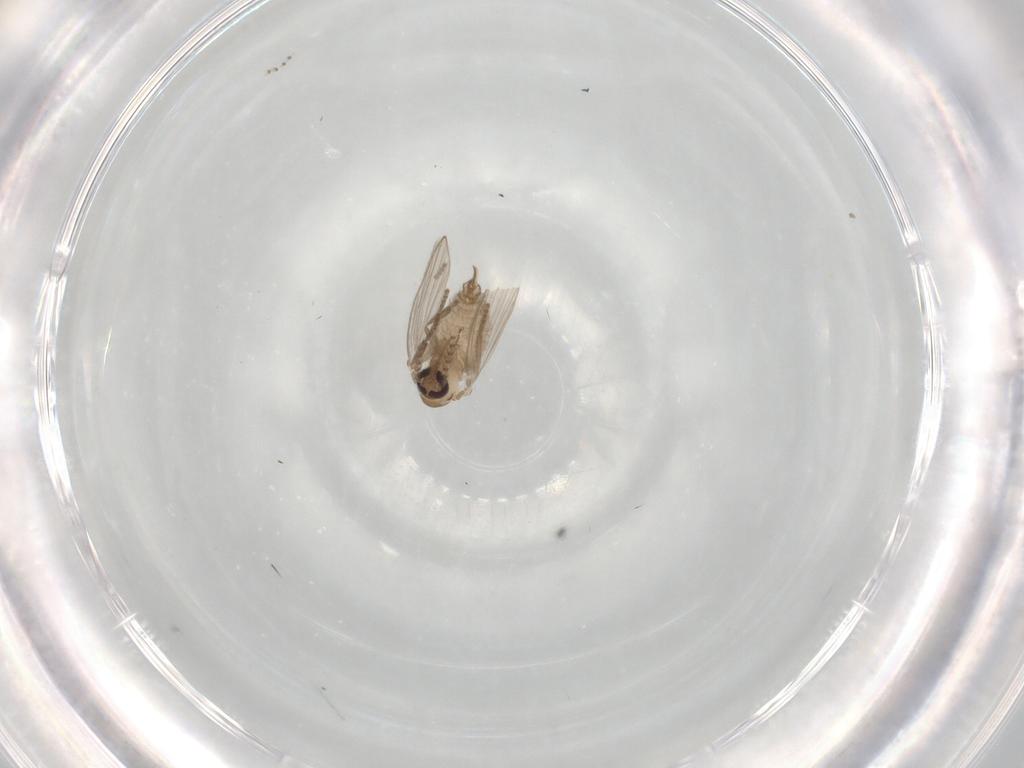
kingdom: Animalia
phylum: Arthropoda
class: Insecta
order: Diptera
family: Psychodidae
